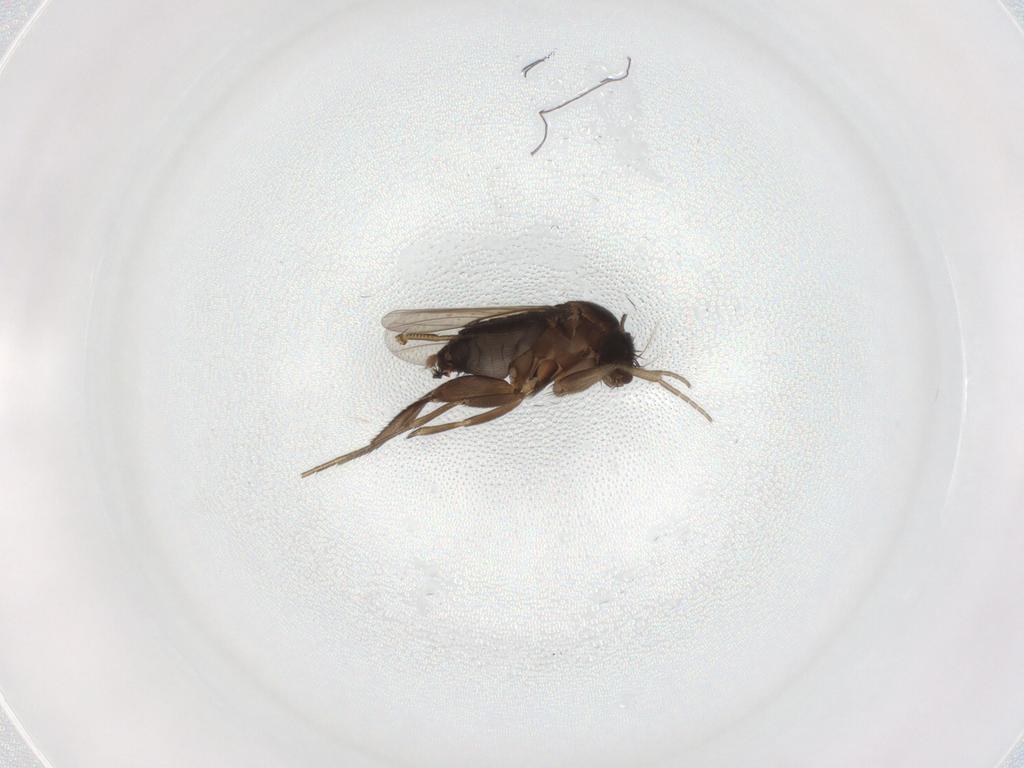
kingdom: Animalia
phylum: Arthropoda
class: Insecta
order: Diptera
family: Phoridae
